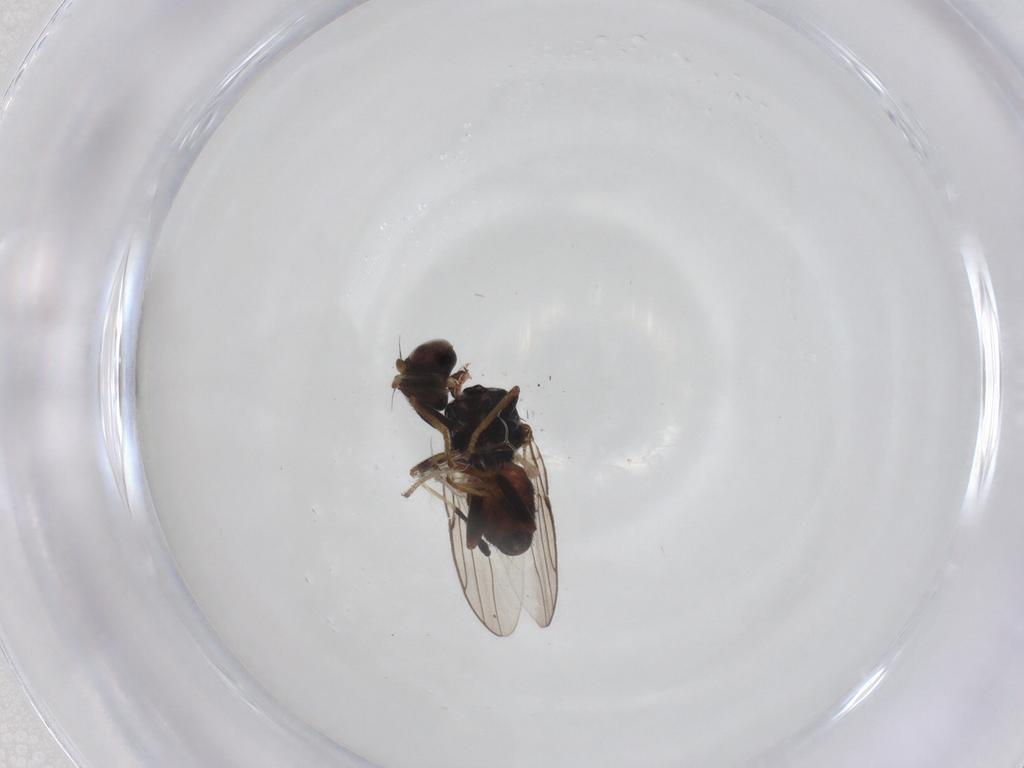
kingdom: Animalia
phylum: Arthropoda
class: Insecta
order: Diptera
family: Chloropidae
